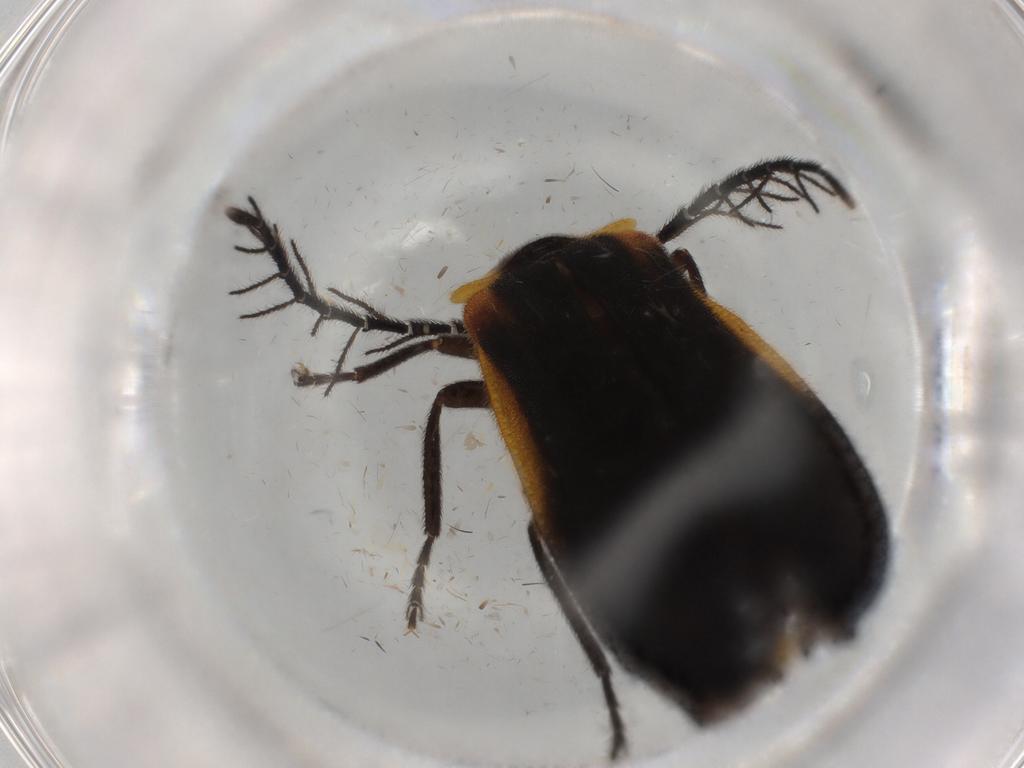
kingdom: Animalia
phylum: Arthropoda
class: Insecta
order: Coleoptera
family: Lampyridae
